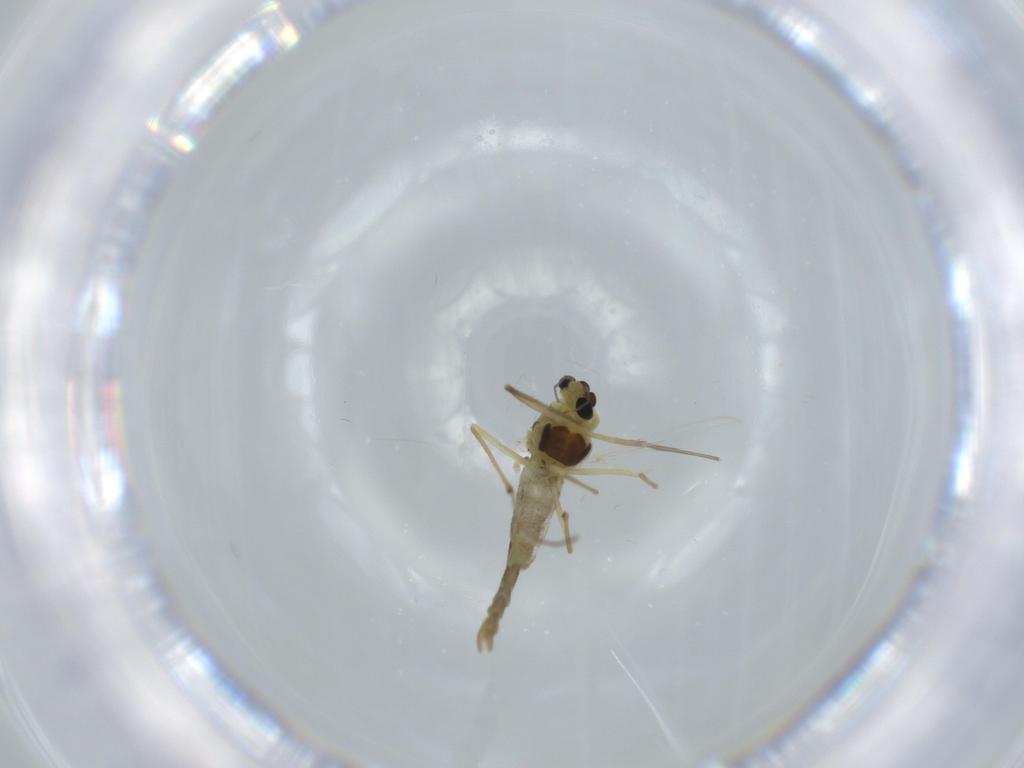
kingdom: Animalia
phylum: Arthropoda
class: Insecta
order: Diptera
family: Chironomidae
